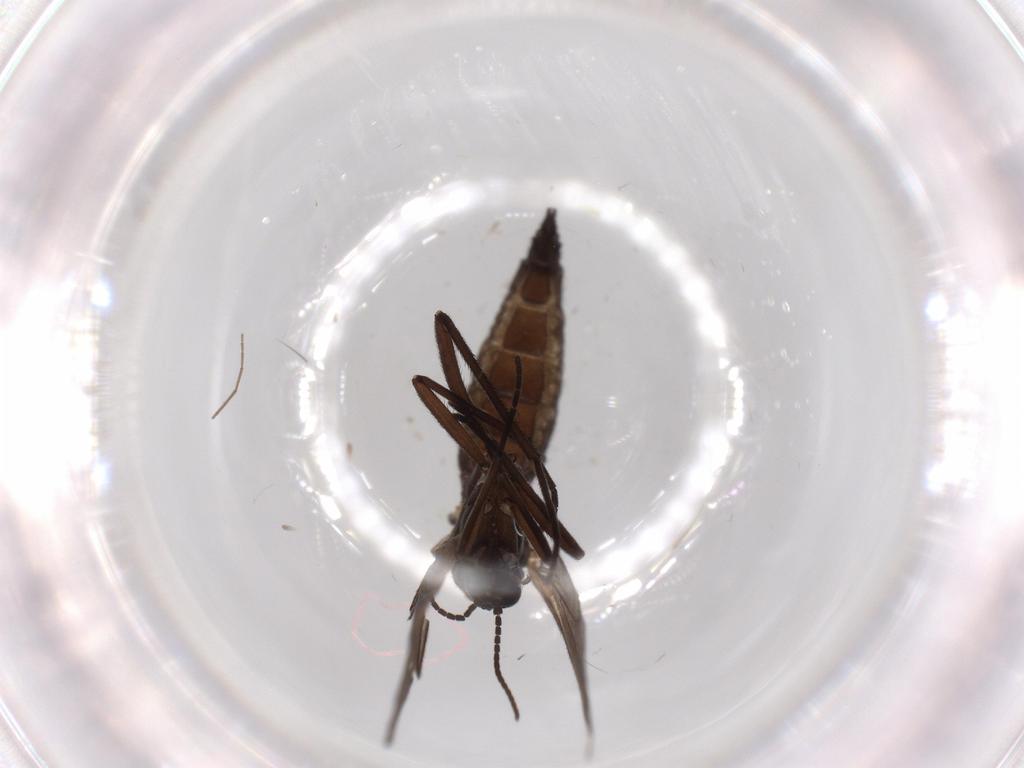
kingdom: Animalia
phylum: Arthropoda
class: Insecta
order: Diptera
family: Sciaridae
